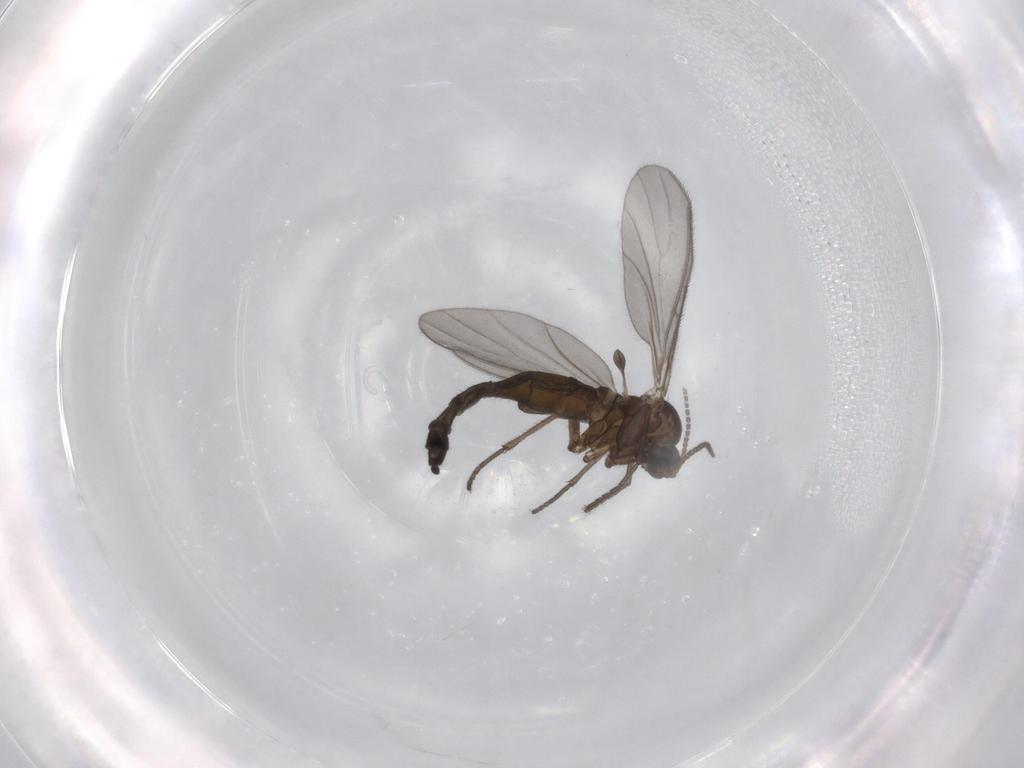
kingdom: Animalia
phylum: Arthropoda
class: Insecta
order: Diptera
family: Sciaridae
